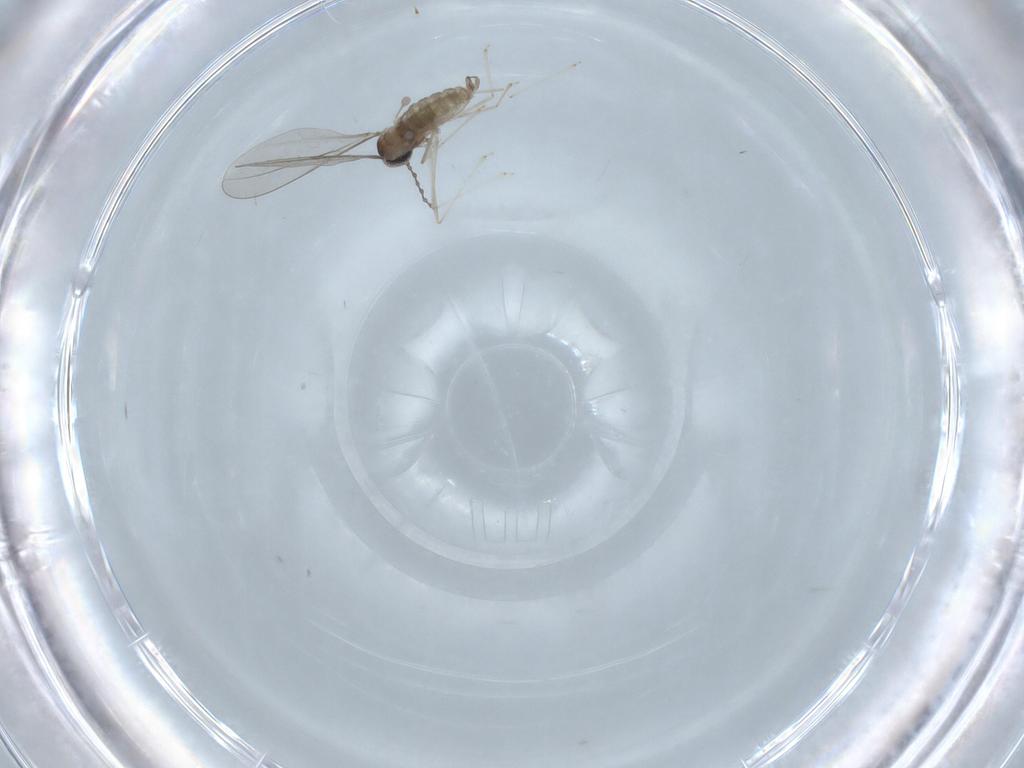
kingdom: Animalia
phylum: Arthropoda
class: Insecta
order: Diptera
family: Cecidomyiidae
